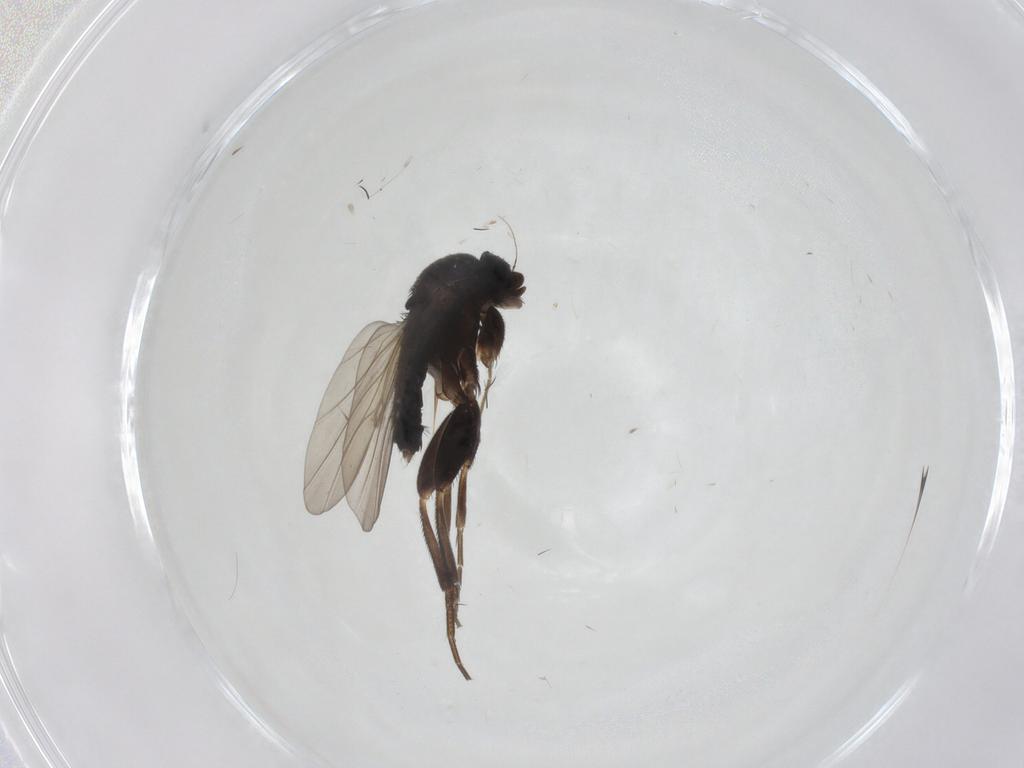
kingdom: Animalia
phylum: Arthropoda
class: Insecta
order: Diptera
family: Phoridae
